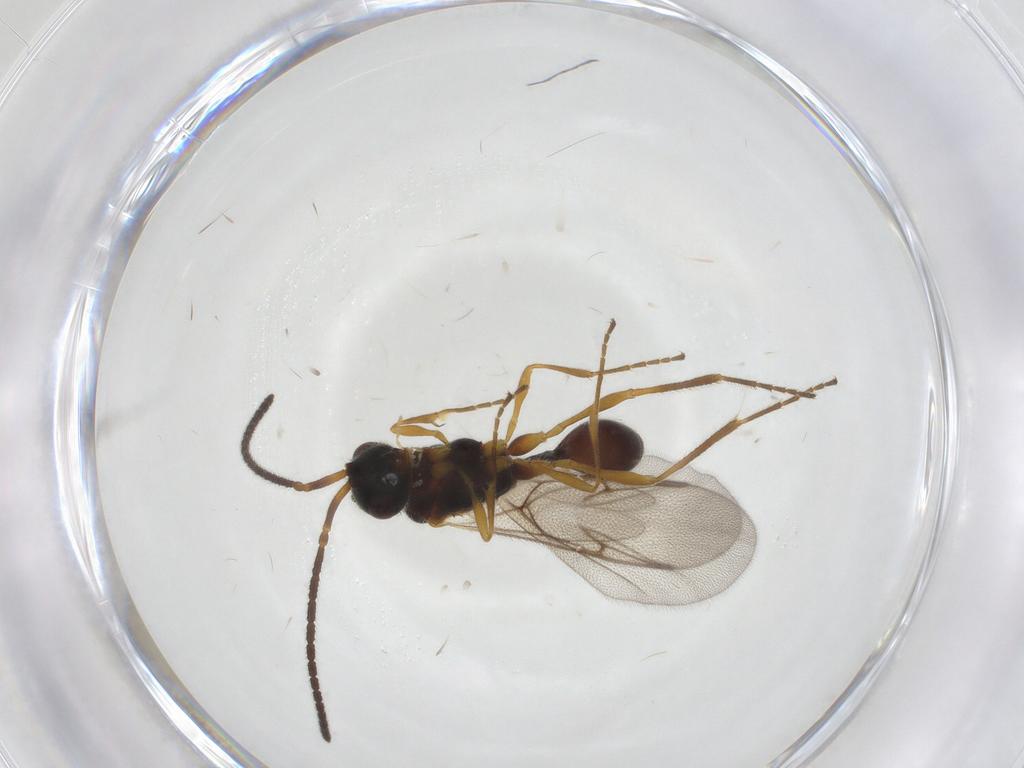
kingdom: Animalia
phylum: Arthropoda
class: Insecta
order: Hymenoptera
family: Diapriidae
